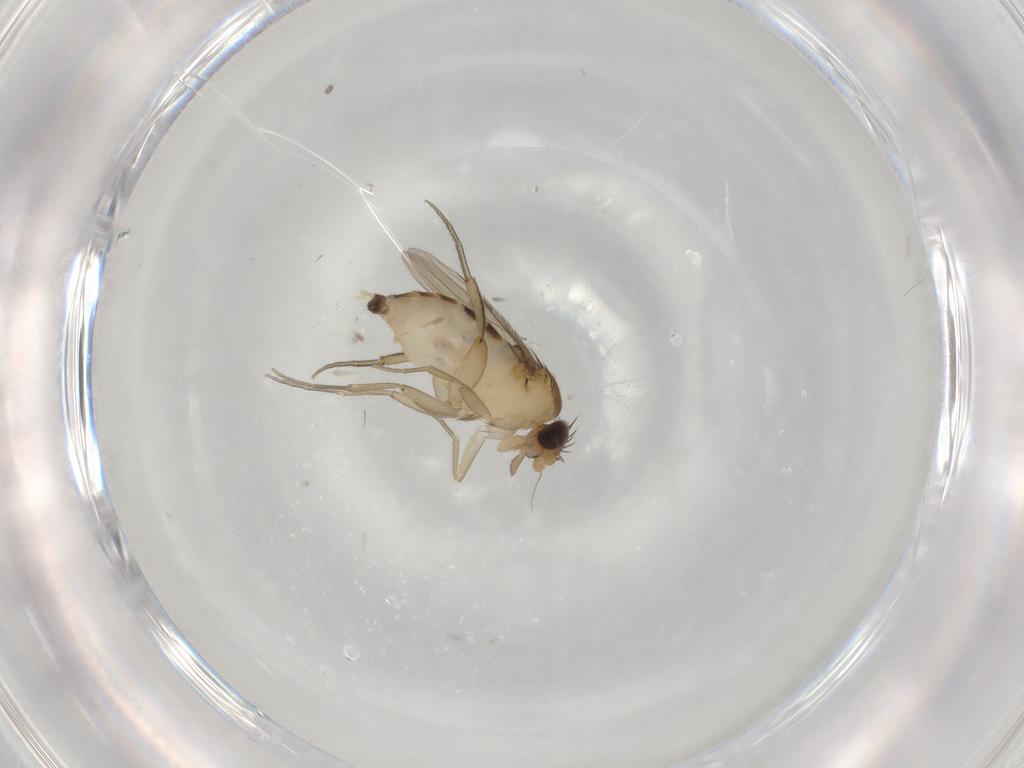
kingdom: Animalia
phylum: Arthropoda
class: Insecta
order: Diptera
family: Phoridae
